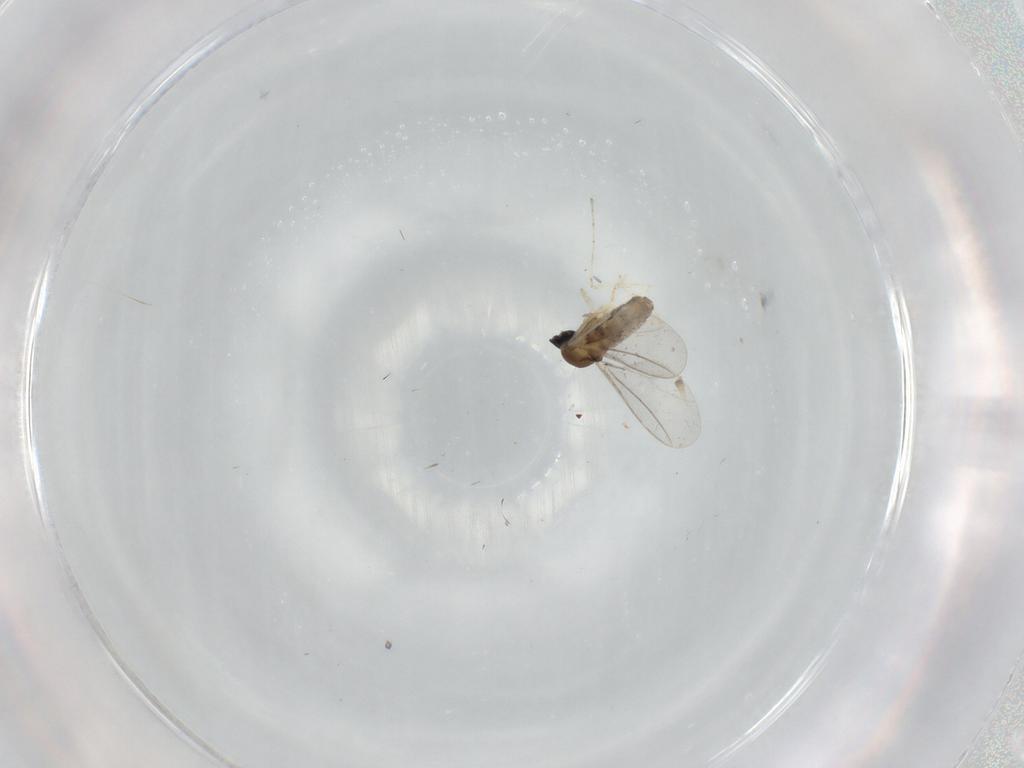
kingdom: Animalia
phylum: Arthropoda
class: Insecta
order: Diptera
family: Cecidomyiidae
